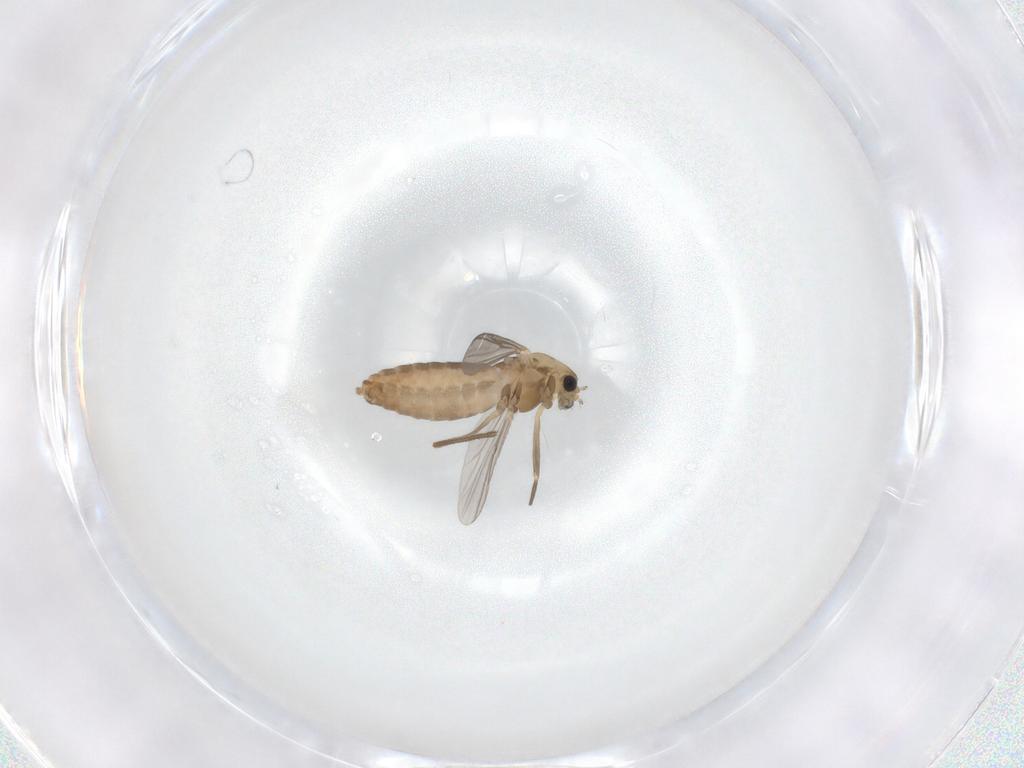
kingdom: Animalia
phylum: Arthropoda
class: Insecta
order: Diptera
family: Chironomidae
